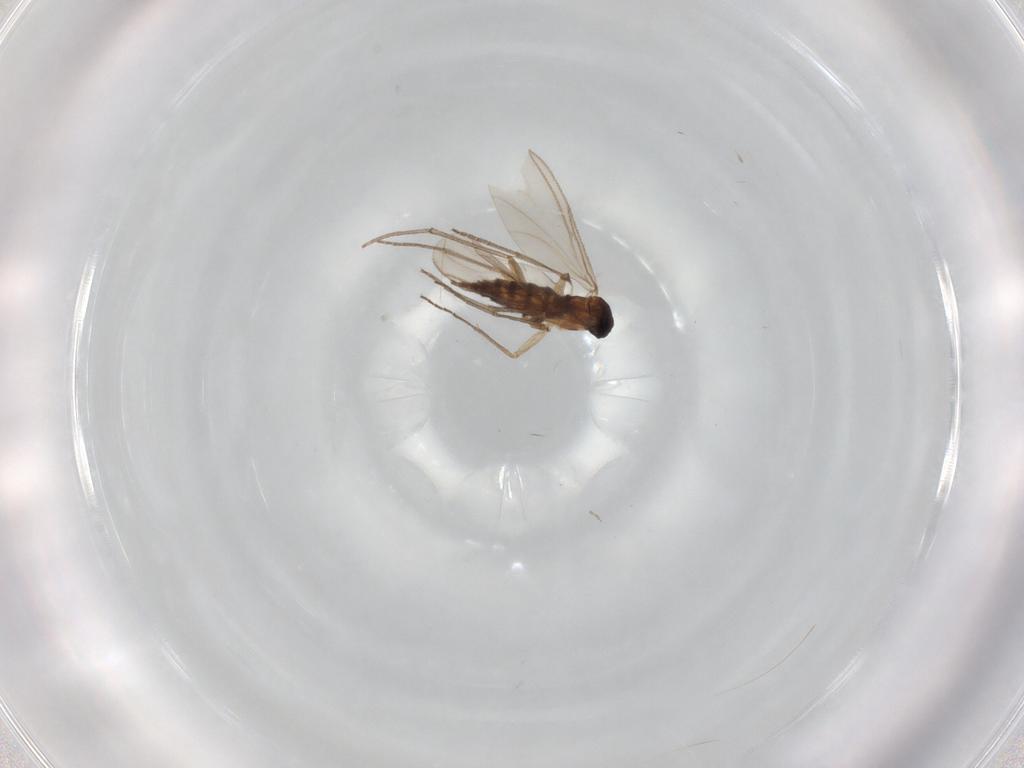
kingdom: Animalia
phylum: Arthropoda
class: Insecta
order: Diptera
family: Sciaridae
